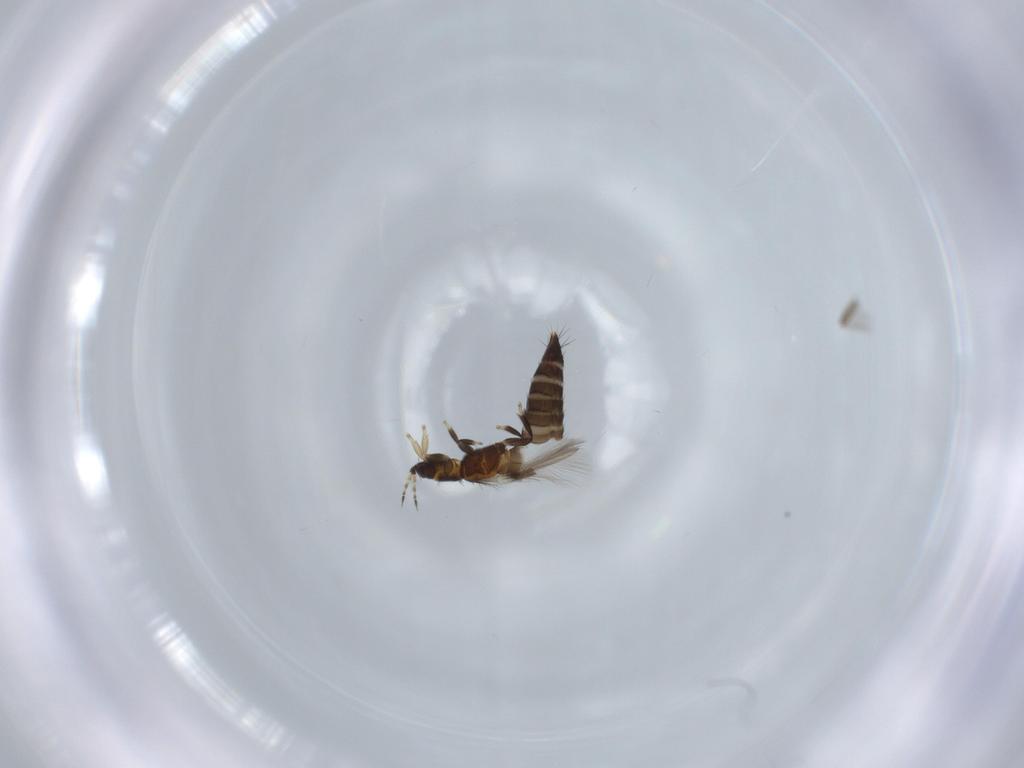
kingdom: Animalia
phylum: Arthropoda
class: Insecta
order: Thysanoptera
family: Thripidae
